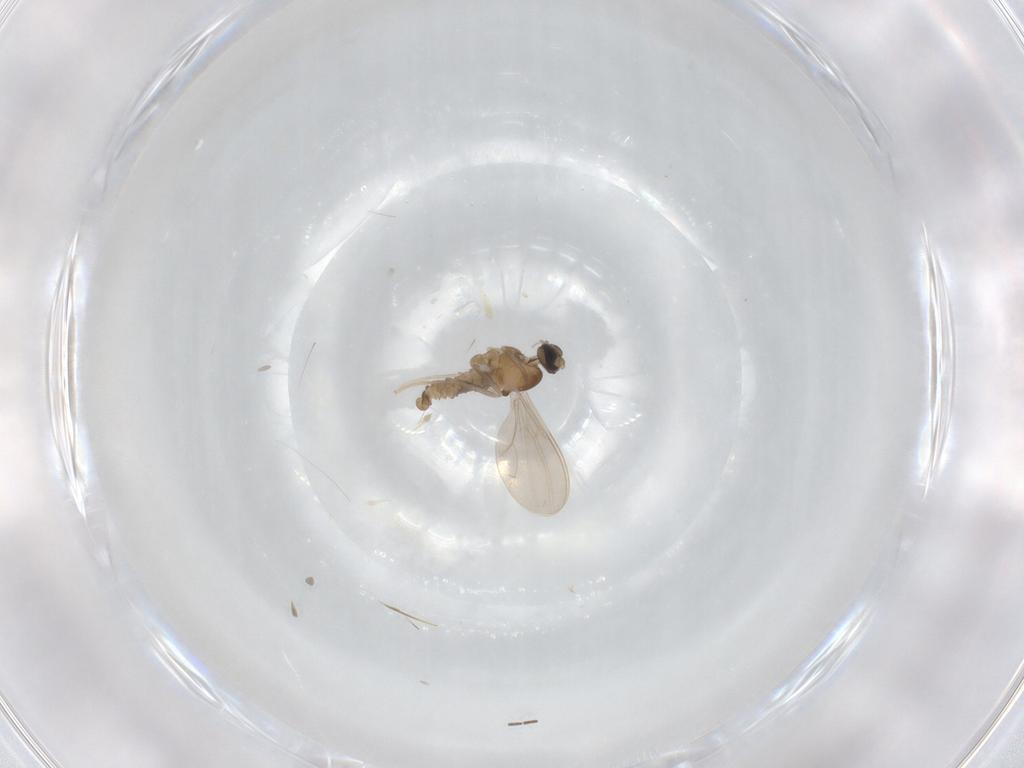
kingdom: Animalia
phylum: Arthropoda
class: Insecta
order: Diptera
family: Cecidomyiidae
